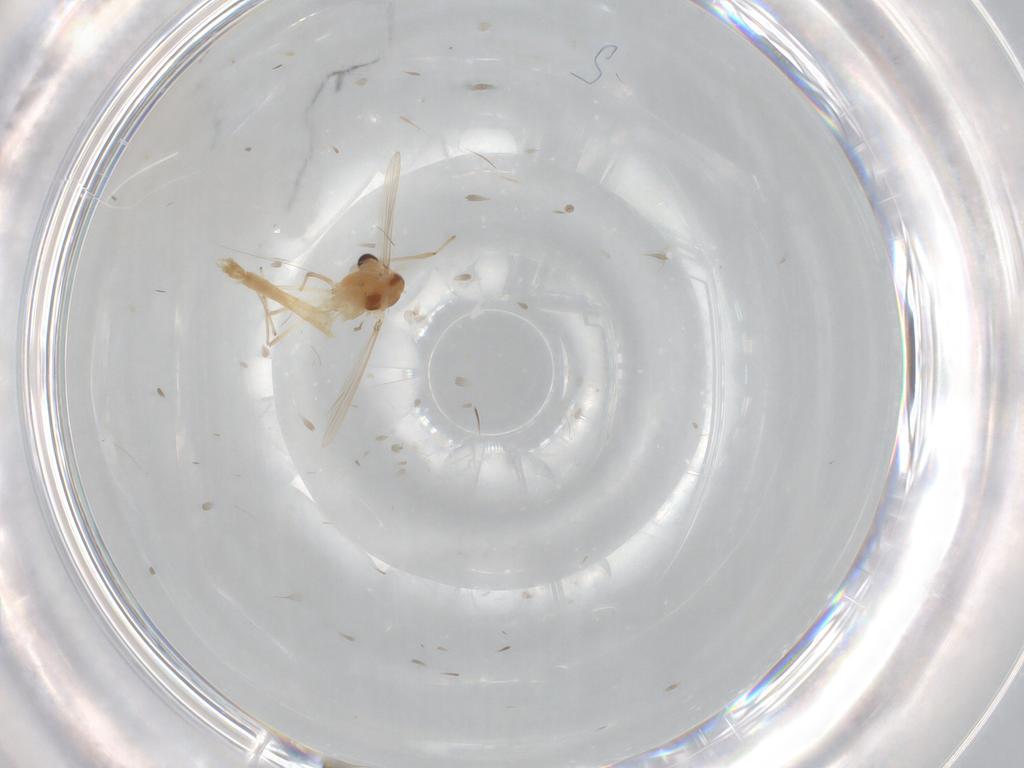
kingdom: Animalia
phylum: Arthropoda
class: Insecta
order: Diptera
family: Chironomidae
